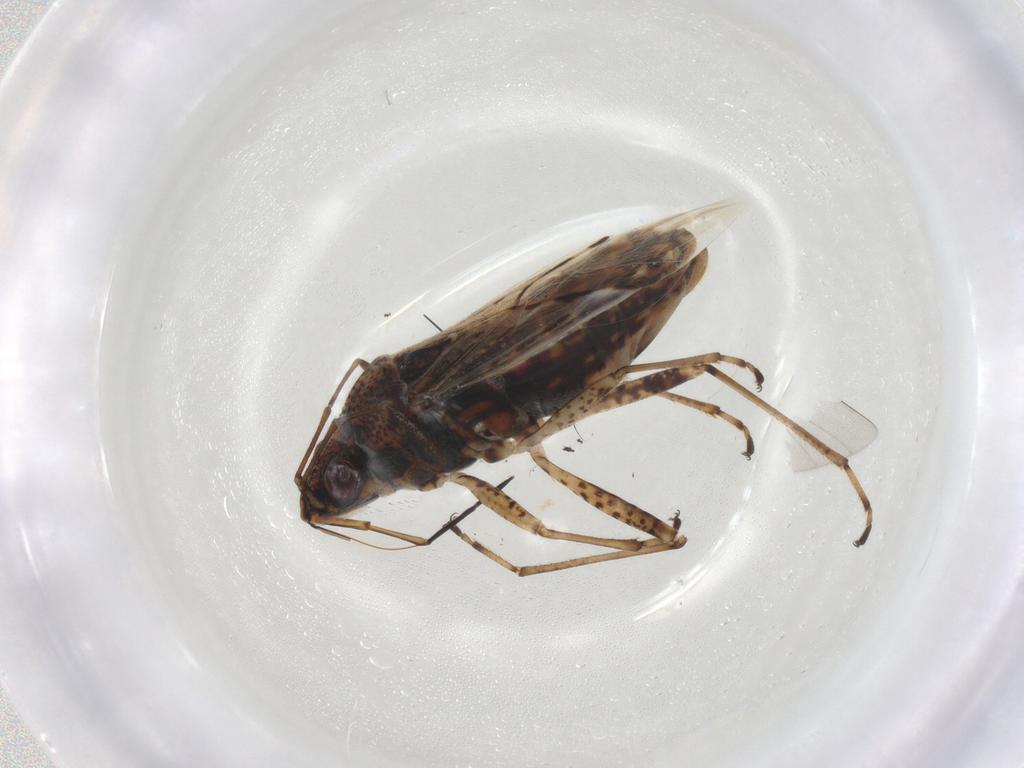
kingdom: Animalia
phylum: Arthropoda
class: Insecta
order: Hemiptera
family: Lygaeidae
